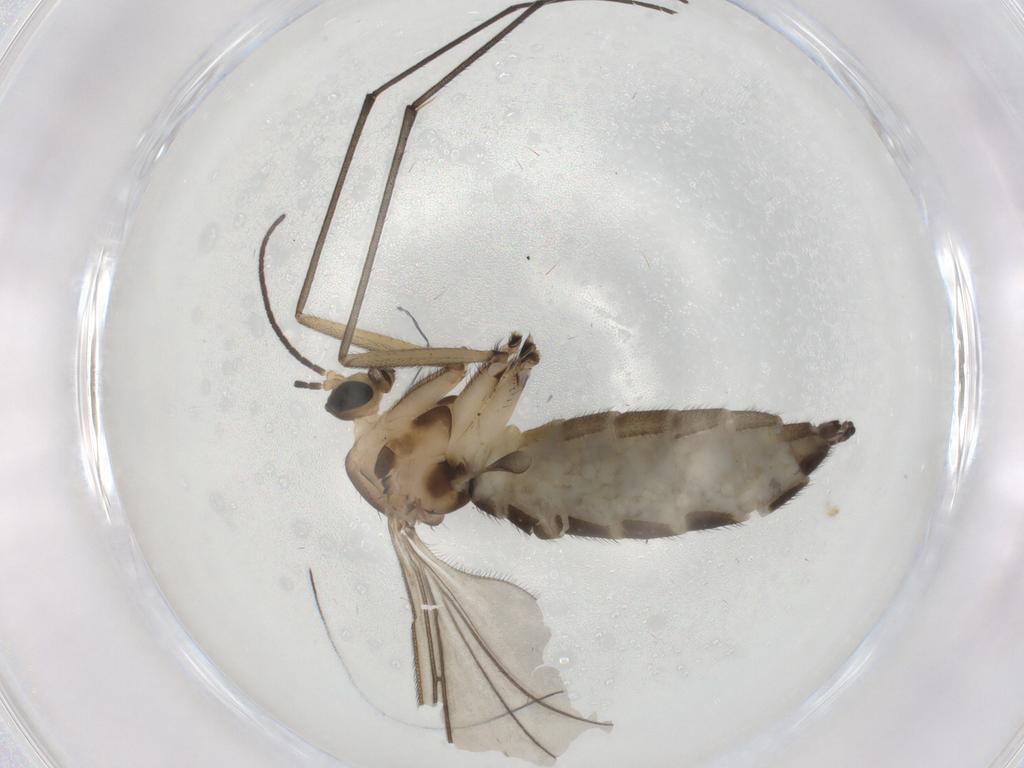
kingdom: Animalia
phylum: Arthropoda
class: Insecta
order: Diptera
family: Sciaridae
